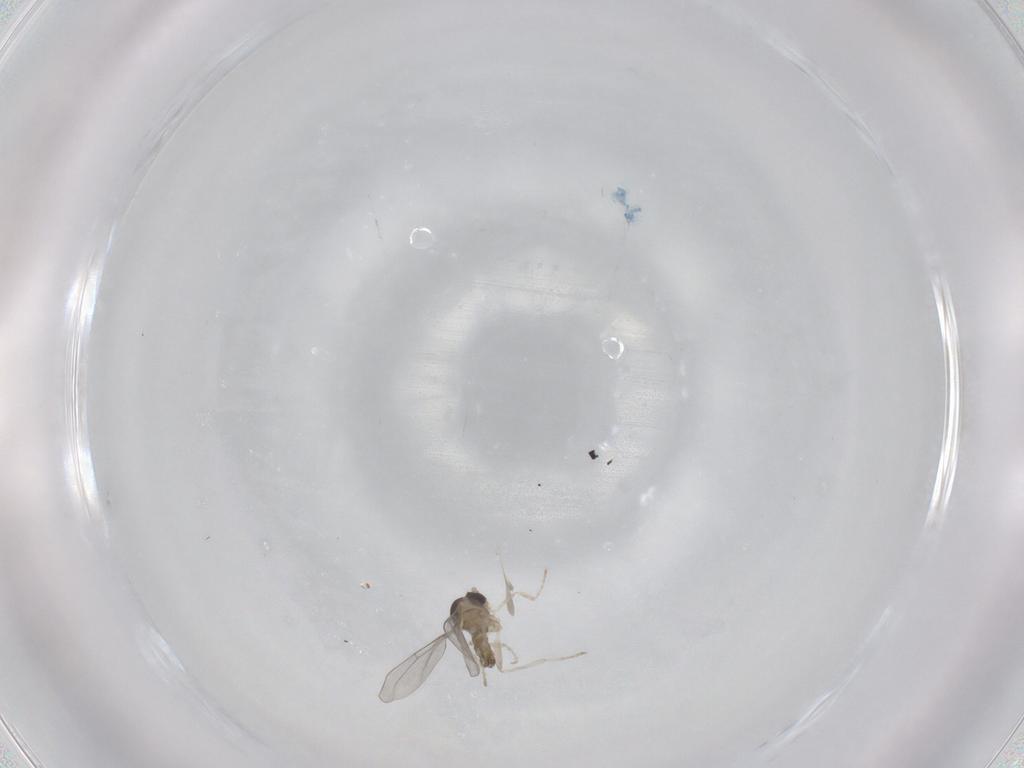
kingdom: Animalia
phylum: Arthropoda
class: Insecta
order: Diptera
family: Cecidomyiidae
